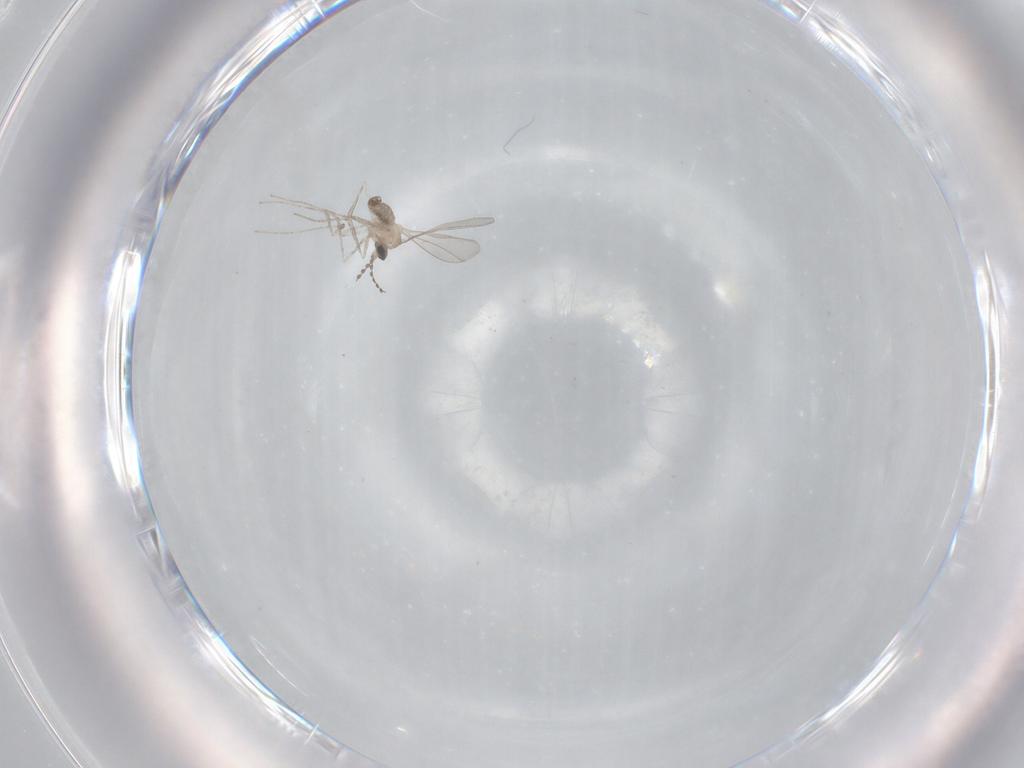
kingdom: Animalia
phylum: Arthropoda
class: Insecta
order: Diptera
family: Cecidomyiidae
